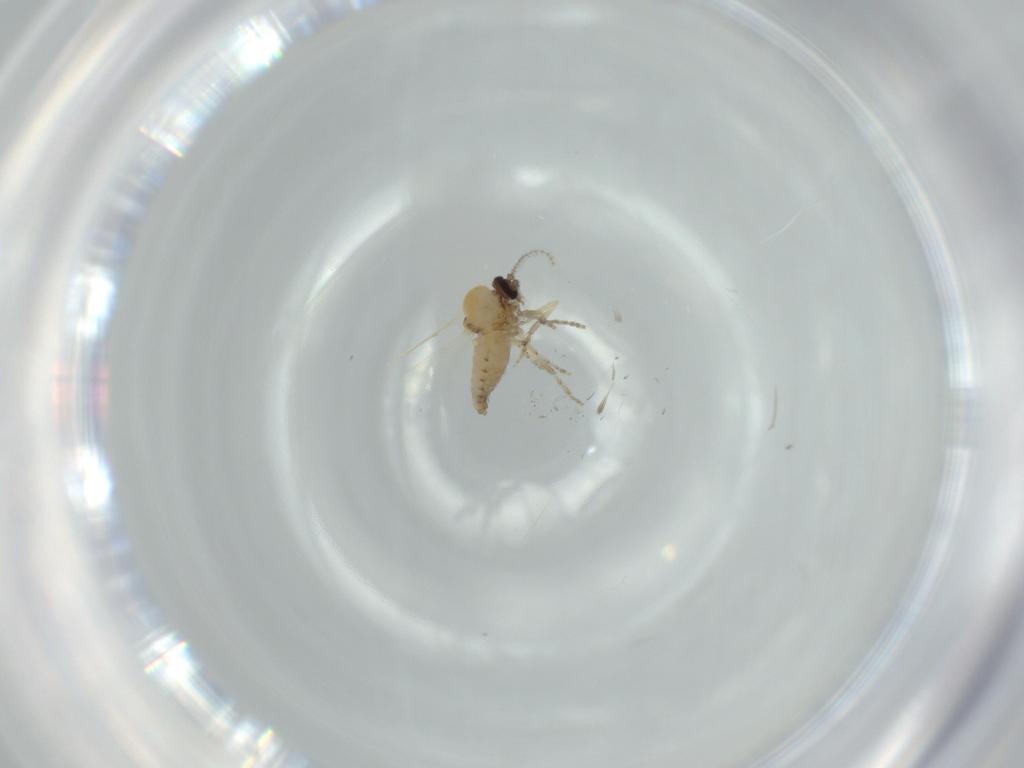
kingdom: Animalia
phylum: Arthropoda
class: Insecta
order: Diptera
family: Ceratopogonidae
